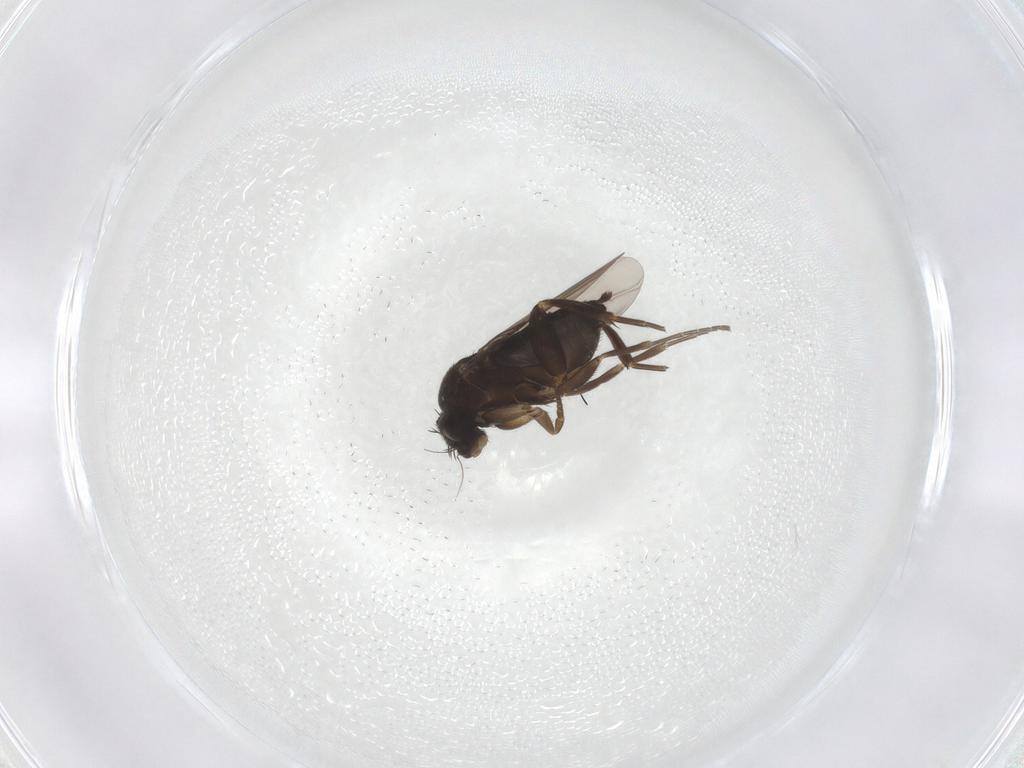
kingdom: Animalia
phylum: Arthropoda
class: Insecta
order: Diptera
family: Phoridae
